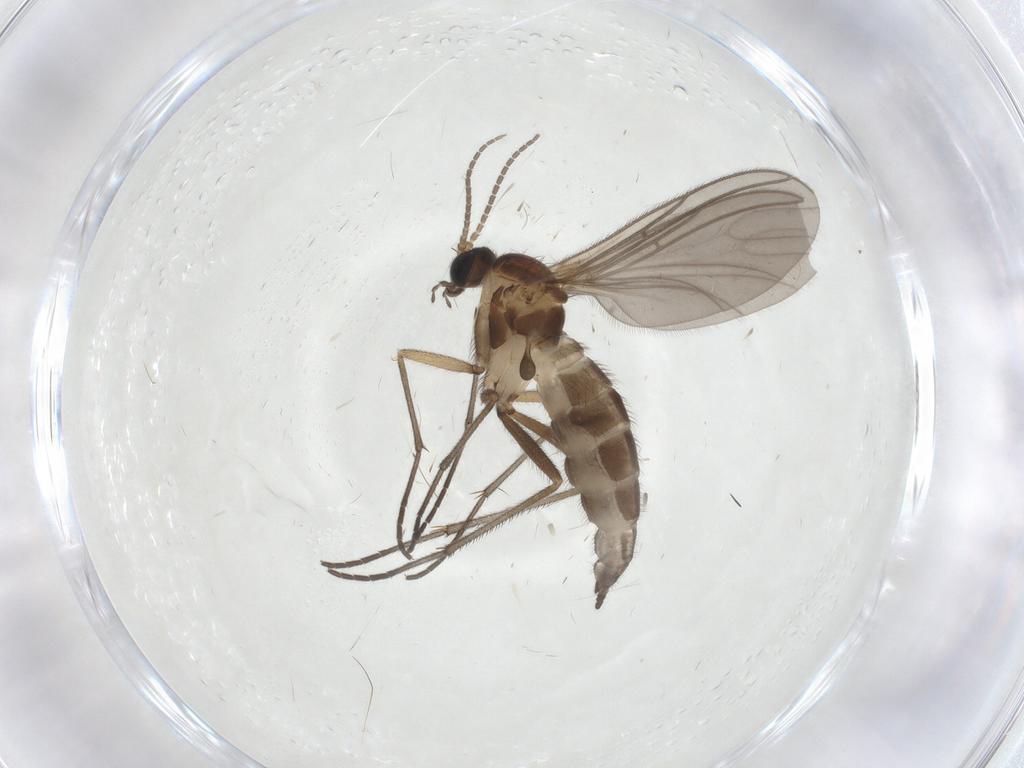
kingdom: Animalia
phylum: Arthropoda
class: Insecta
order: Diptera
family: Sciaridae
